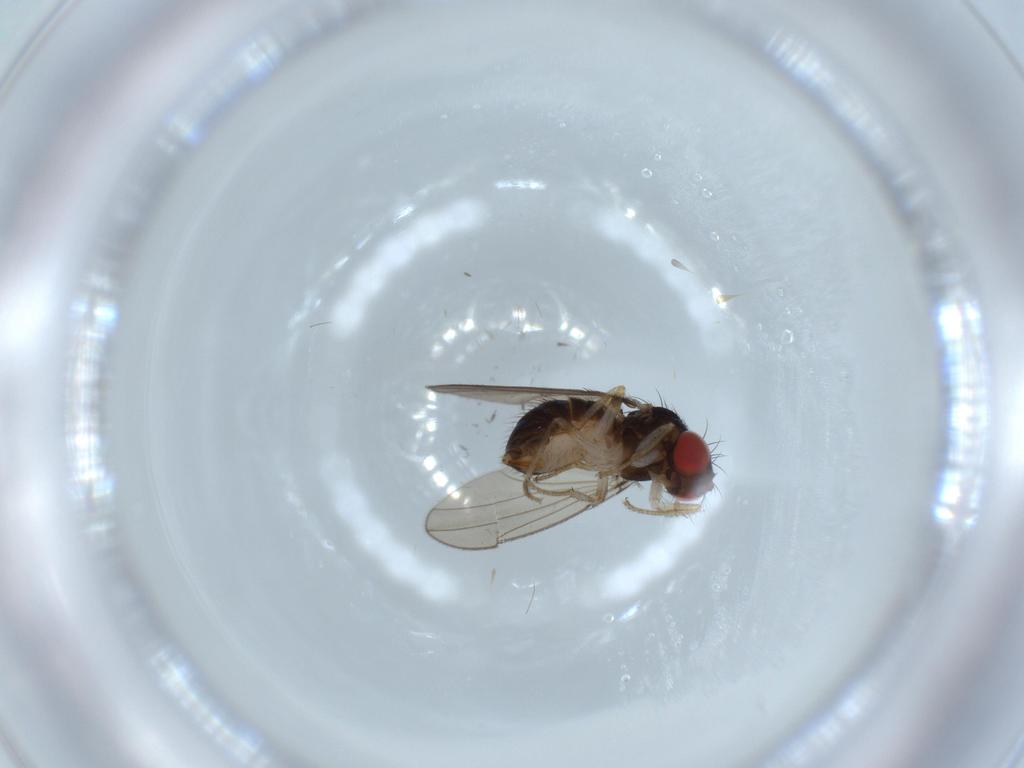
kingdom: Animalia
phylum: Arthropoda
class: Insecta
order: Diptera
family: Drosophilidae
